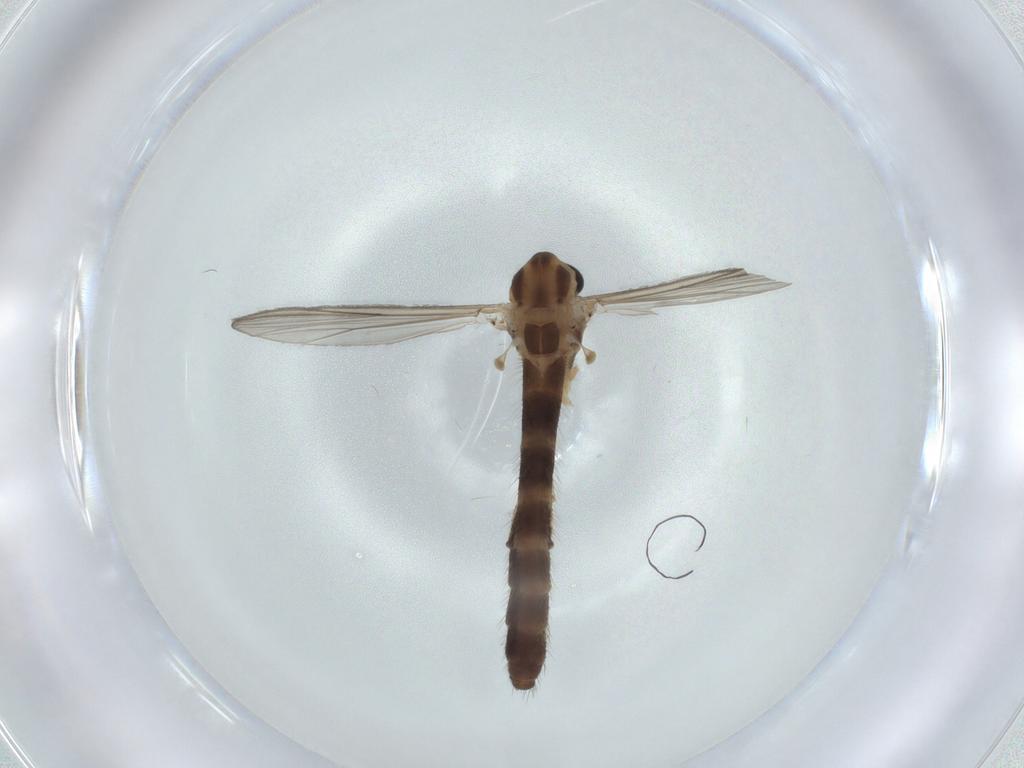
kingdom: Animalia
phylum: Arthropoda
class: Insecta
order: Diptera
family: Chironomidae
